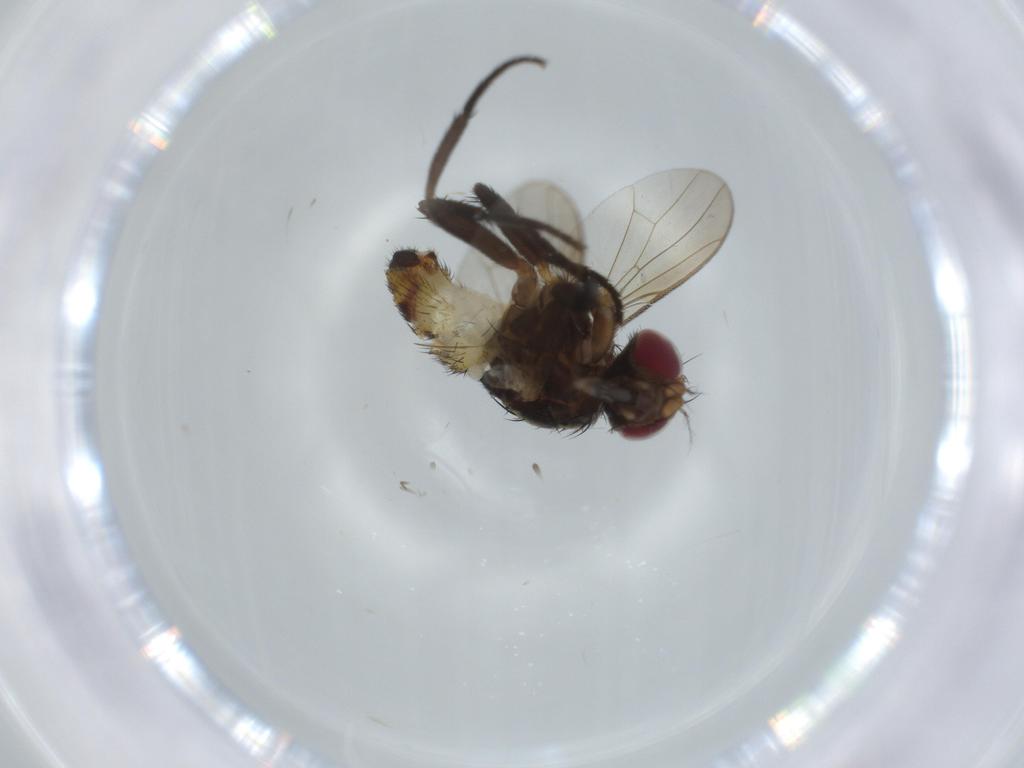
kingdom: Animalia
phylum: Arthropoda
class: Insecta
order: Diptera
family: Anthomyiidae
